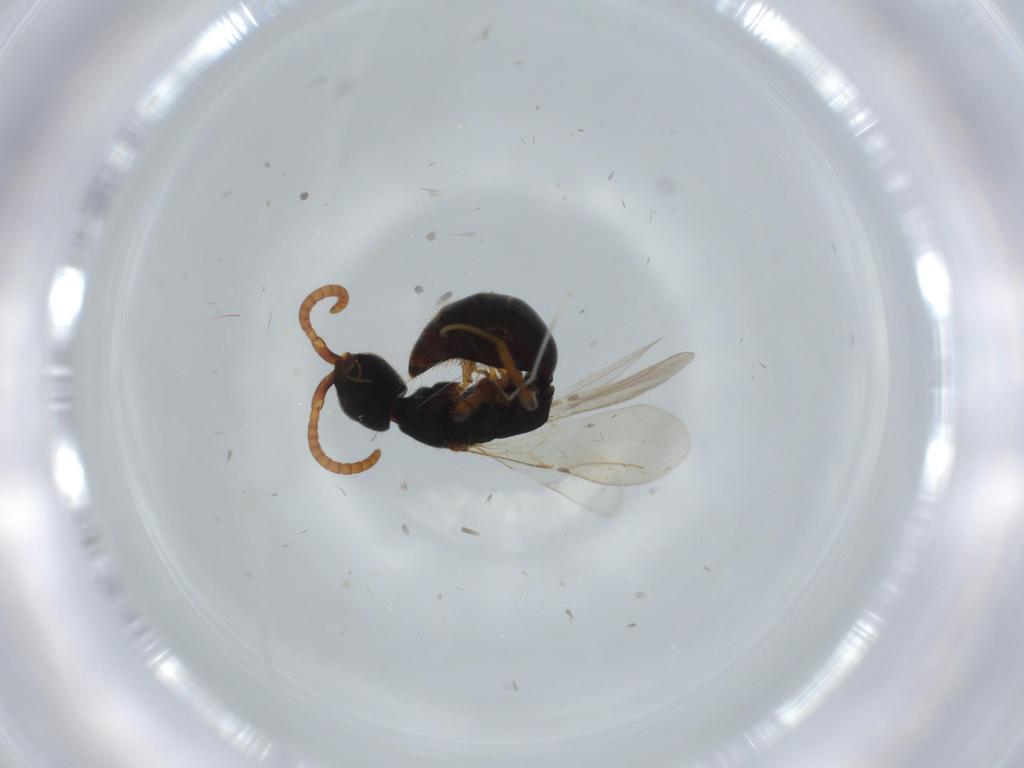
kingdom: Animalia
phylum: Arthropoda
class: Insecta
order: Hymenoptera
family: Bethylidae
